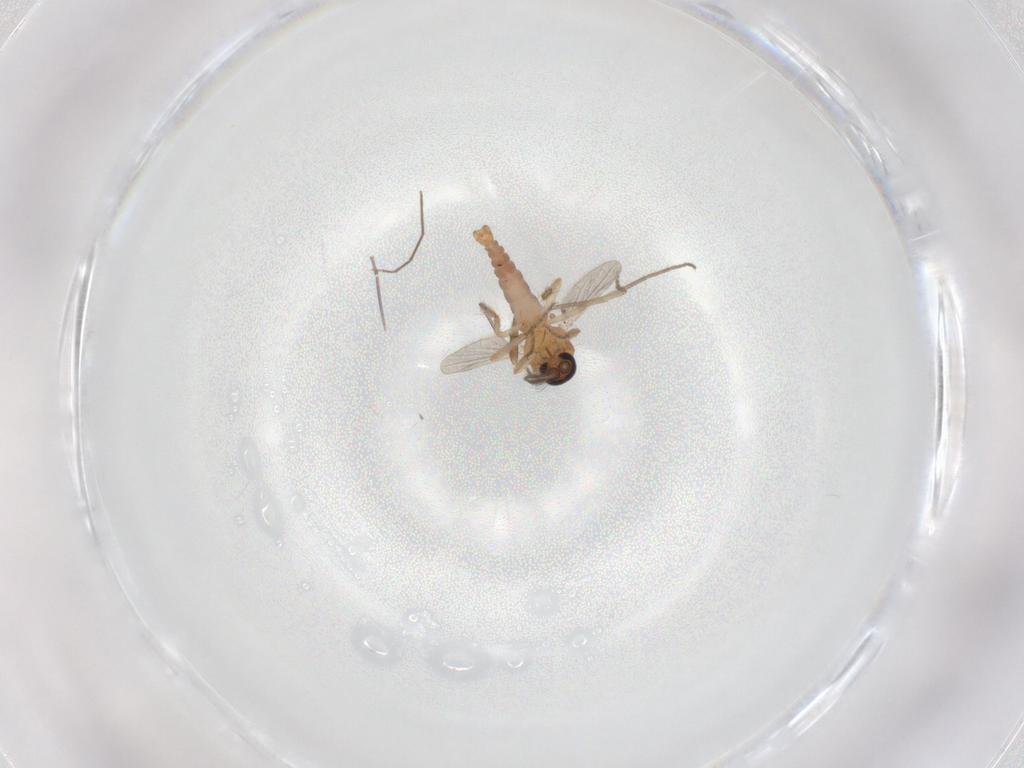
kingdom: Animalia
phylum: Arthropoda
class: Insecta
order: Diptera
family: Ceratopogonidae
